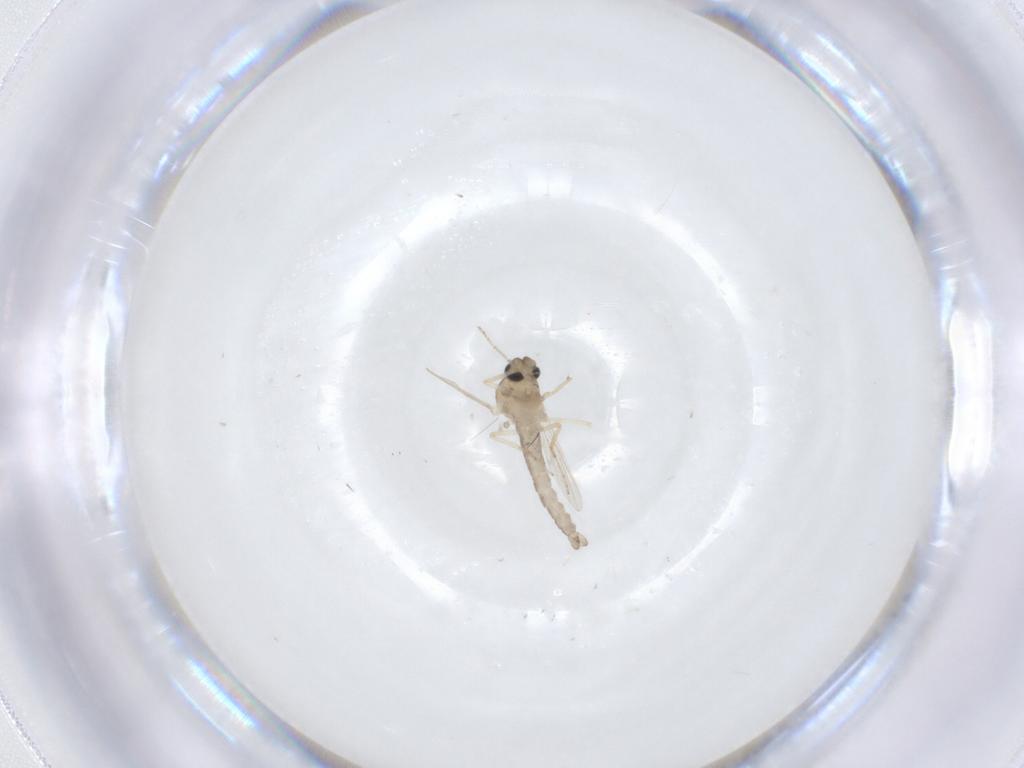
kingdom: Animalia
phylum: Arthropoda
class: Insecta
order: Diptera
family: Ceratopogonidae
